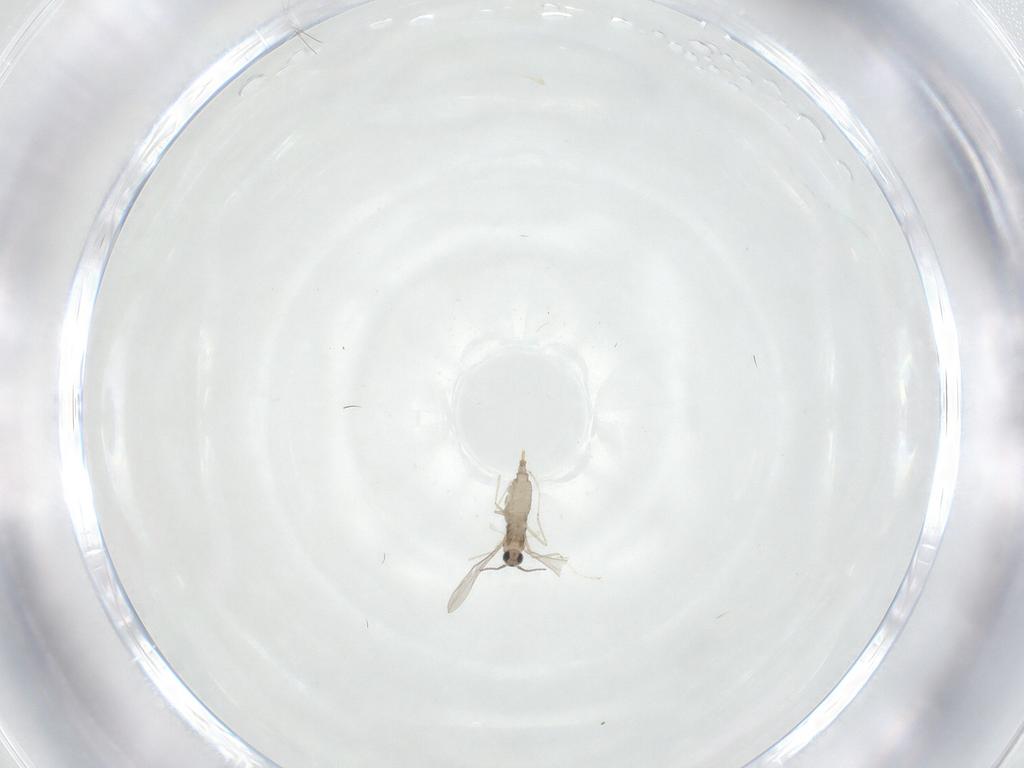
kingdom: Animalia
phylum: Arthropoda
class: Insecta
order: Diptera
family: Cecidomyiidae
